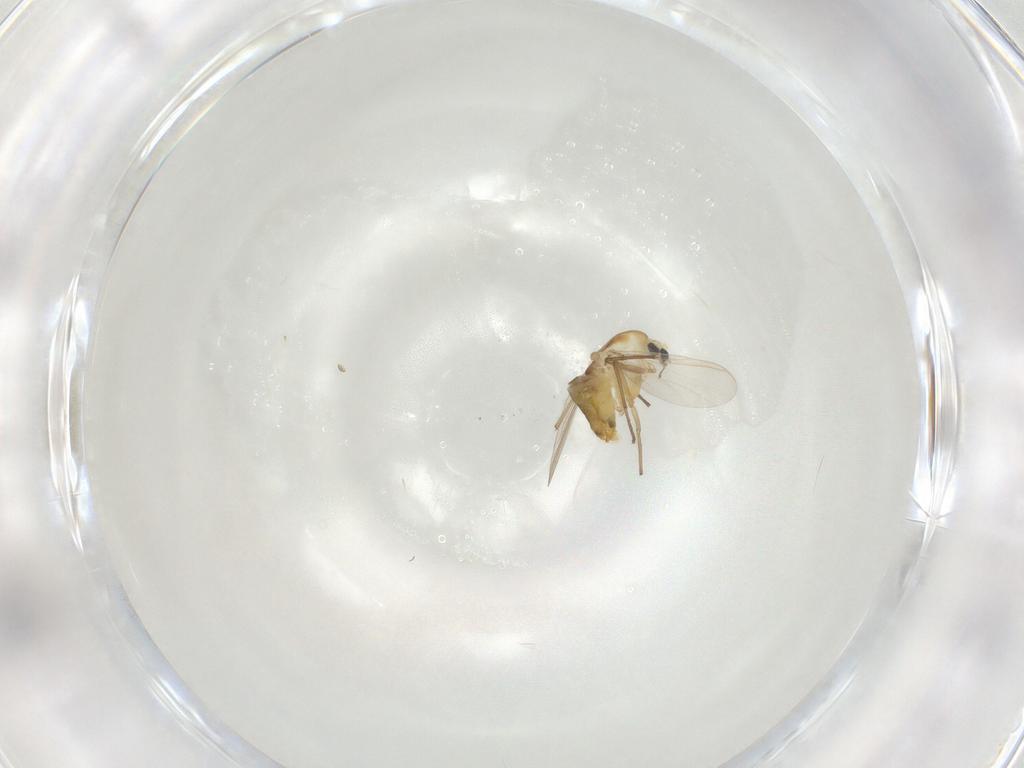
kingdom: Animalia
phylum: Arthropoda
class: Insecta
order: Diptera
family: Chironomidae
